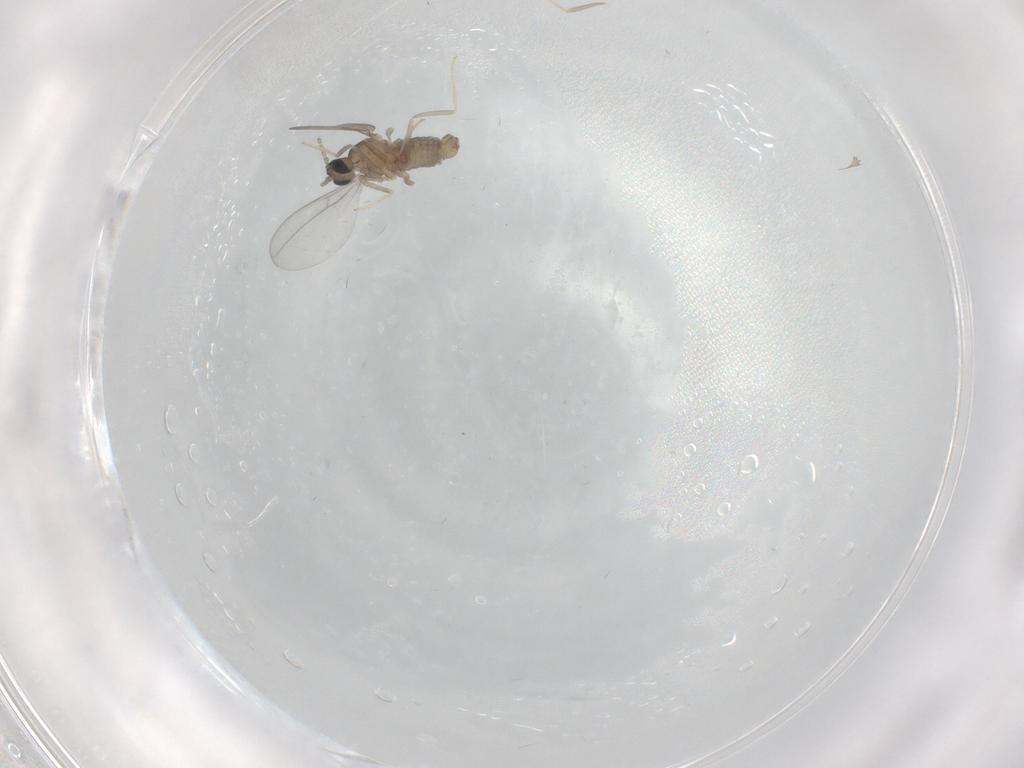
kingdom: Animalia
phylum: Arthropoda
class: Insecta
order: Diptera
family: Cecidomyiidae
